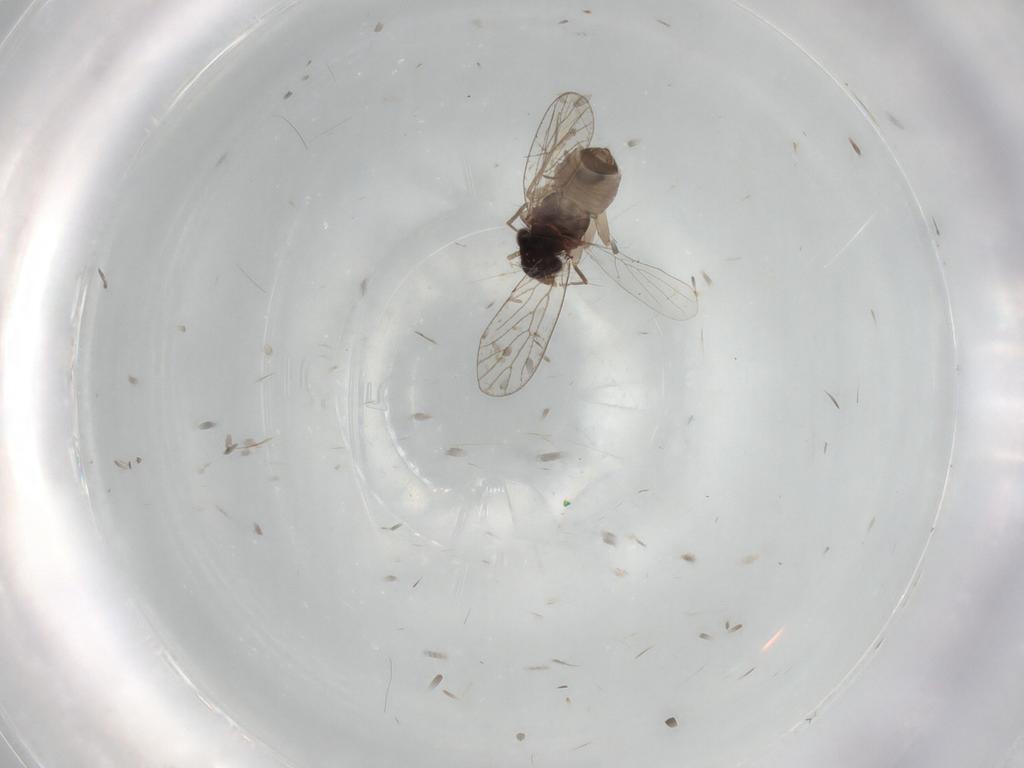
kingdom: Animalia
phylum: Arthropoda
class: Insecta
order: Psocodea
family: Psoquillidae
